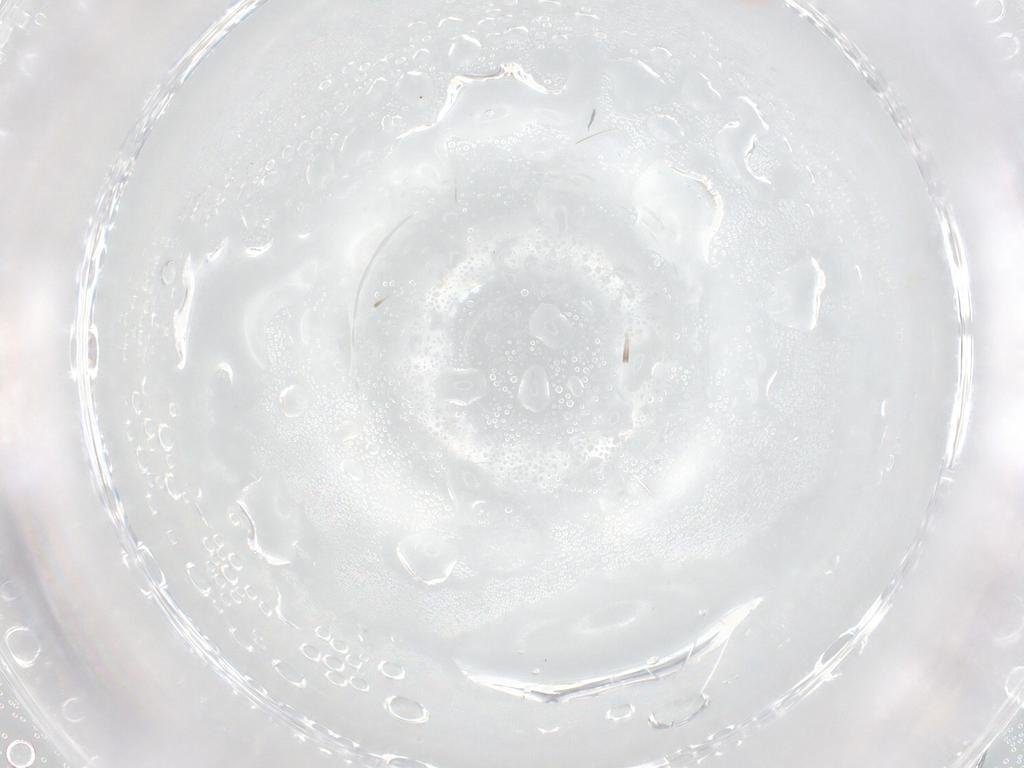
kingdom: Animalia
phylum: Arthropoda
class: Insecta
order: Hymenoptera
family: Trichogrammatidae
